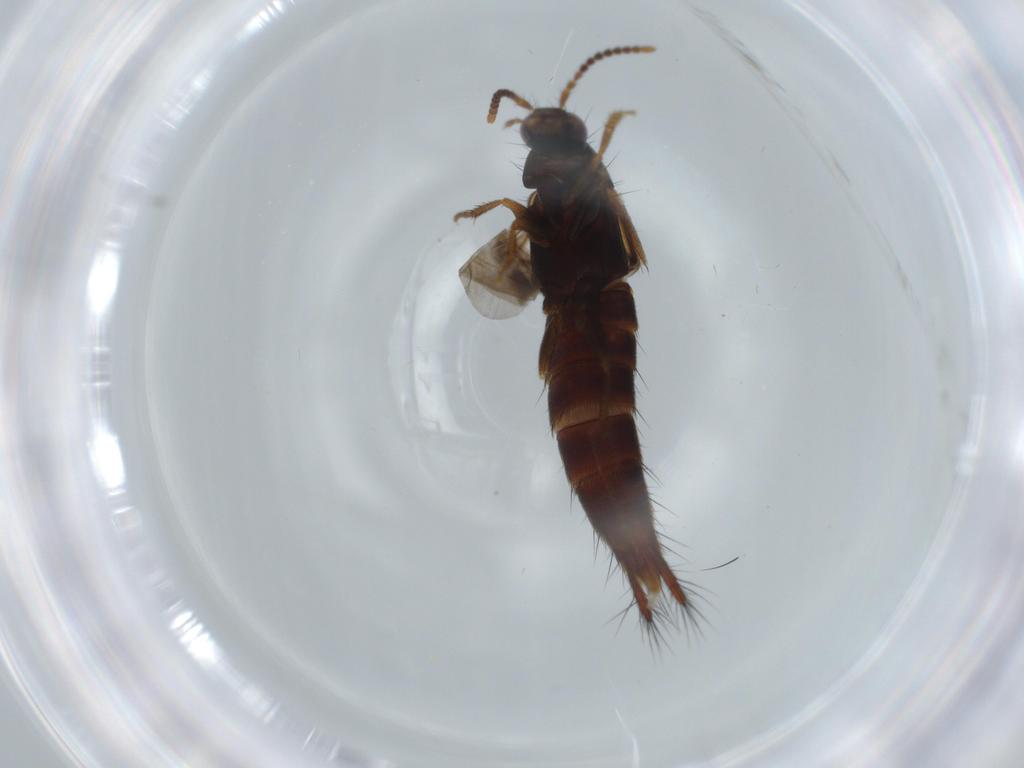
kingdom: Animalia
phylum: Arthropoda
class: Insecta
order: Coleoptera
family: Staphylinidae
